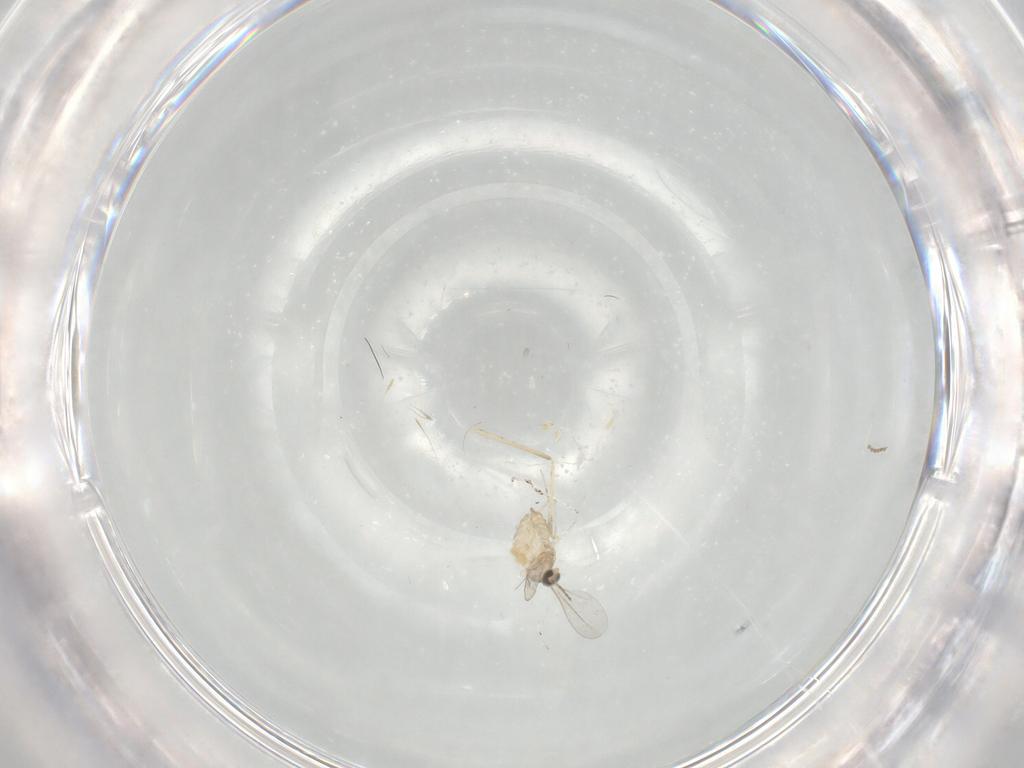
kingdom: Animalia
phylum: Arthropoda
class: Insecta
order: Diptera
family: Cecidomyiidae
